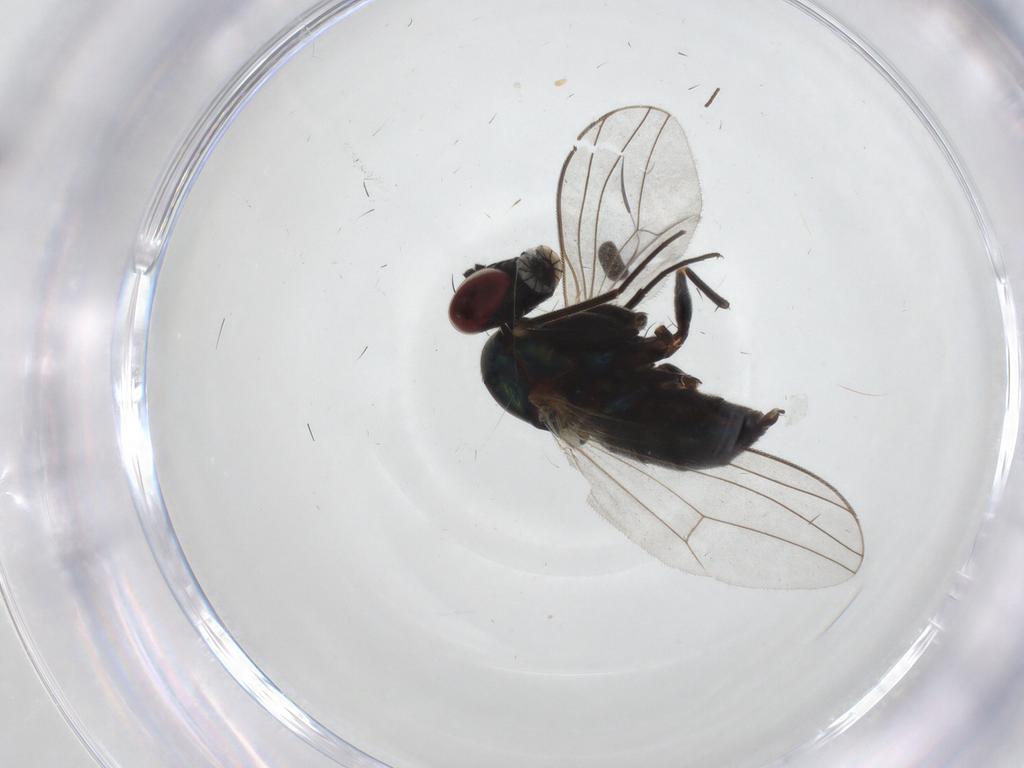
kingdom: Animalia
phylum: Arthropoda
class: Insecta
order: Diptera
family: Dolichopodidae
